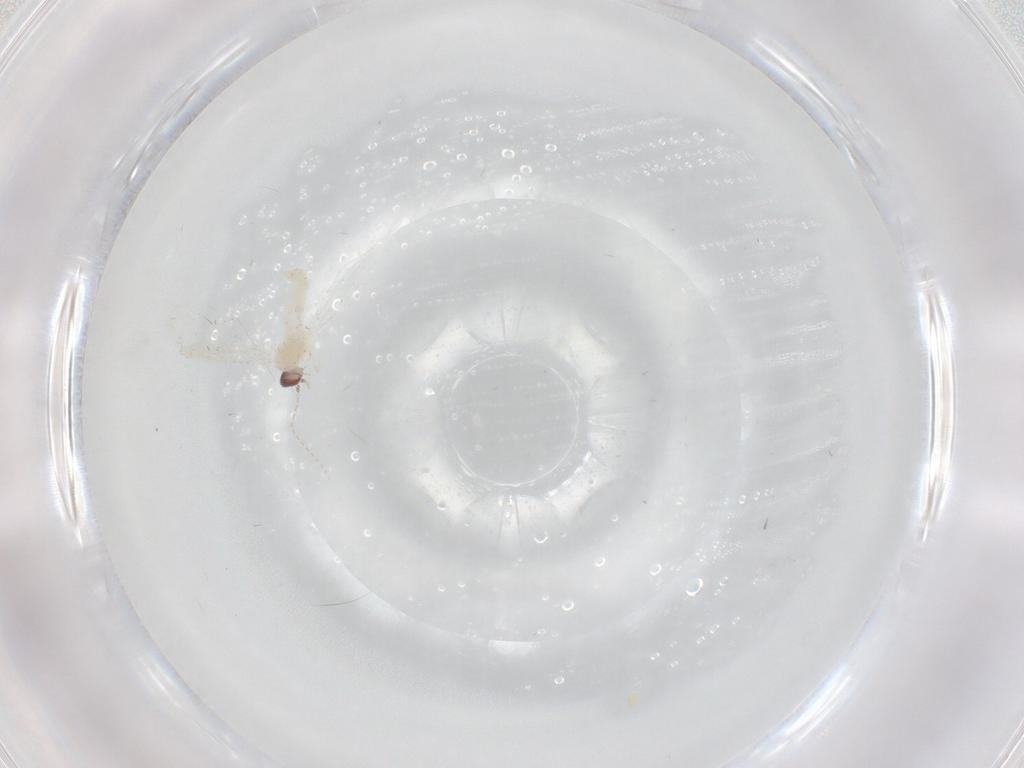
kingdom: Animalia
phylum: Arthropoda
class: Insecta
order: Diptera
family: Cecidomyiidae
